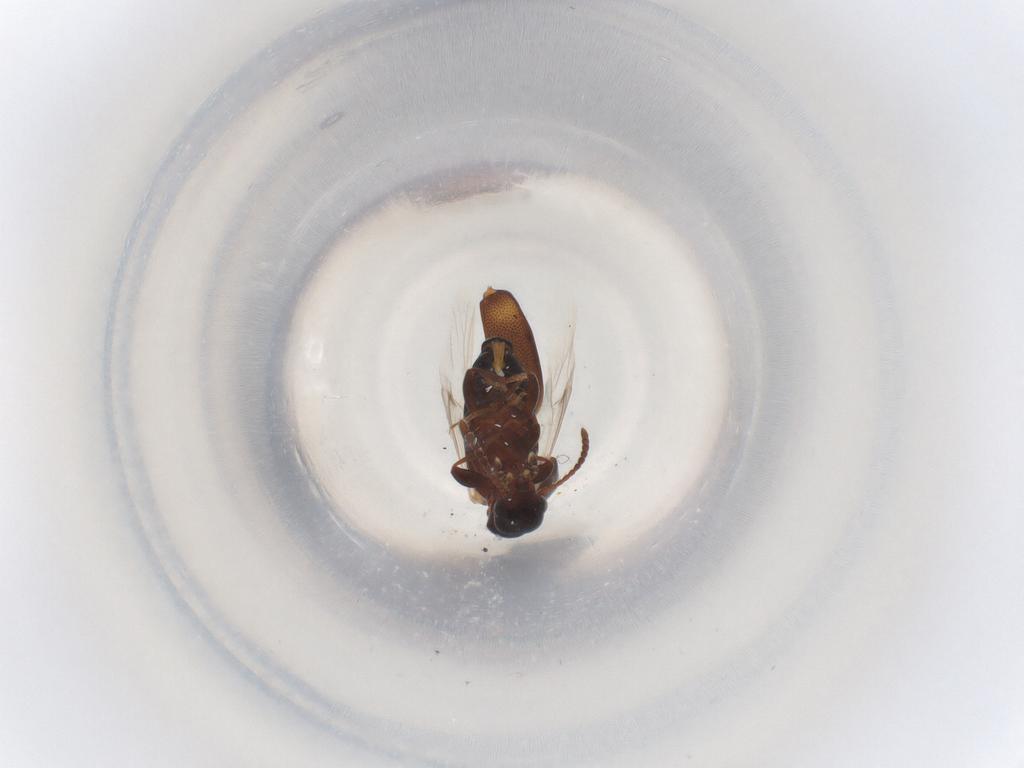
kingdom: Animalia
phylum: Arthropoda
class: Insecta
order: Coleoptera
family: Anthicidae
